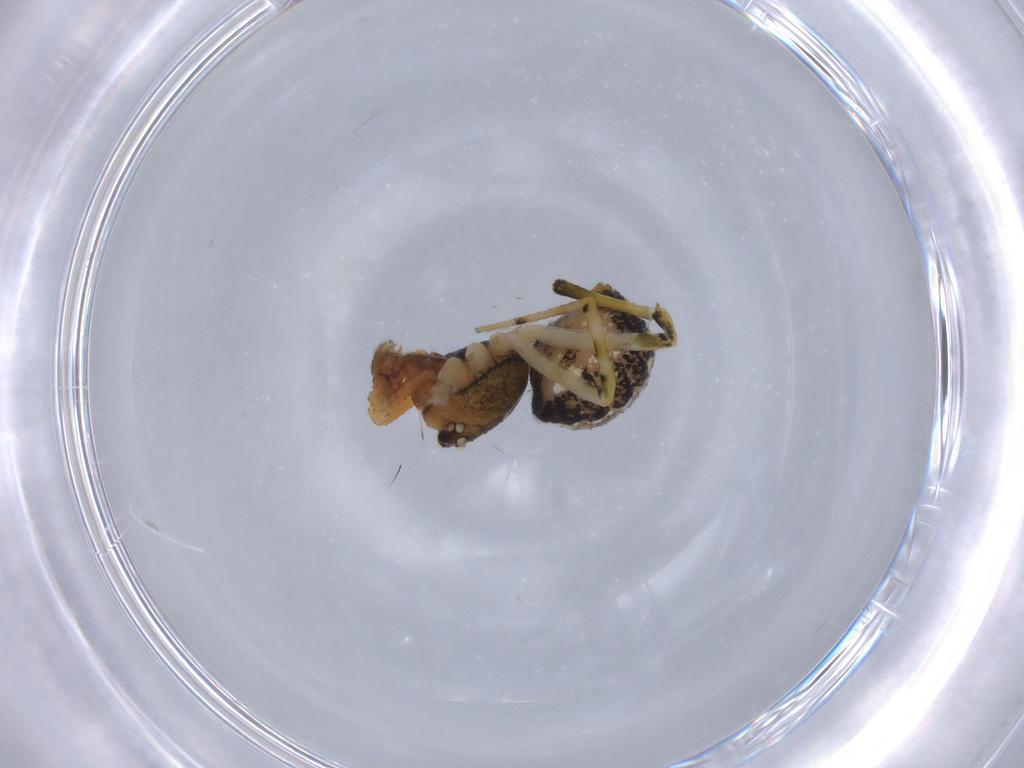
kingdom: Animalia
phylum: Arthropoda
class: Arachnida
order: Araneae
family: Theridiidae
